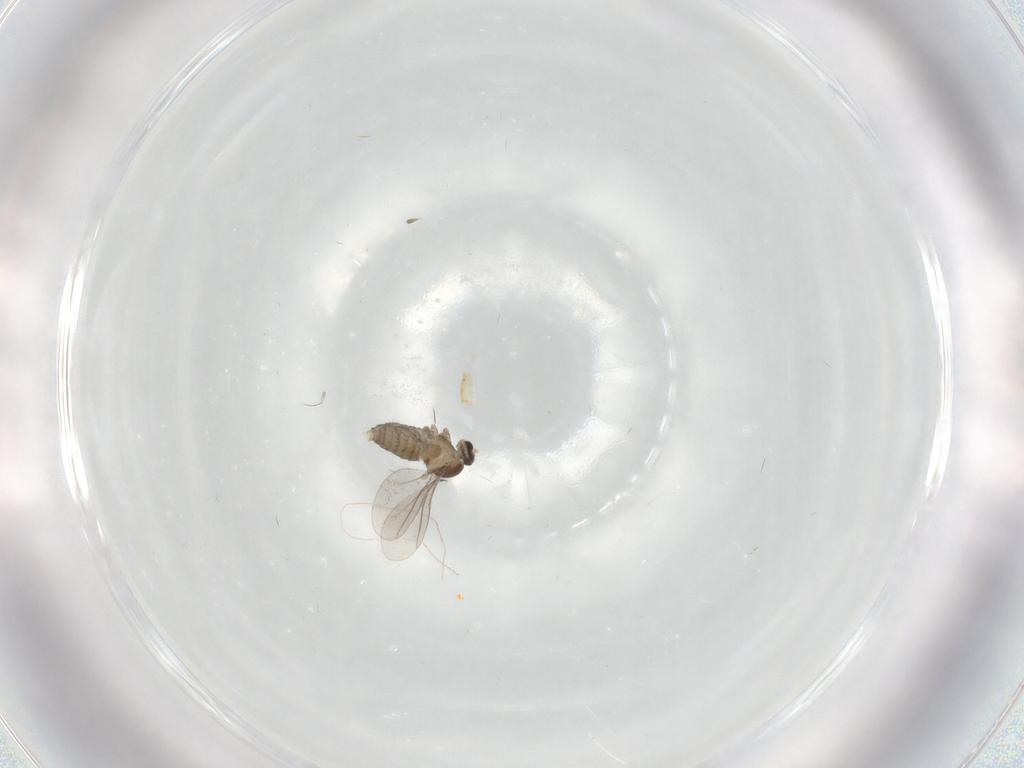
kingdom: Animalia
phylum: Arthropoda
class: Insecta
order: Diptera
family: Cecidomyiidae
